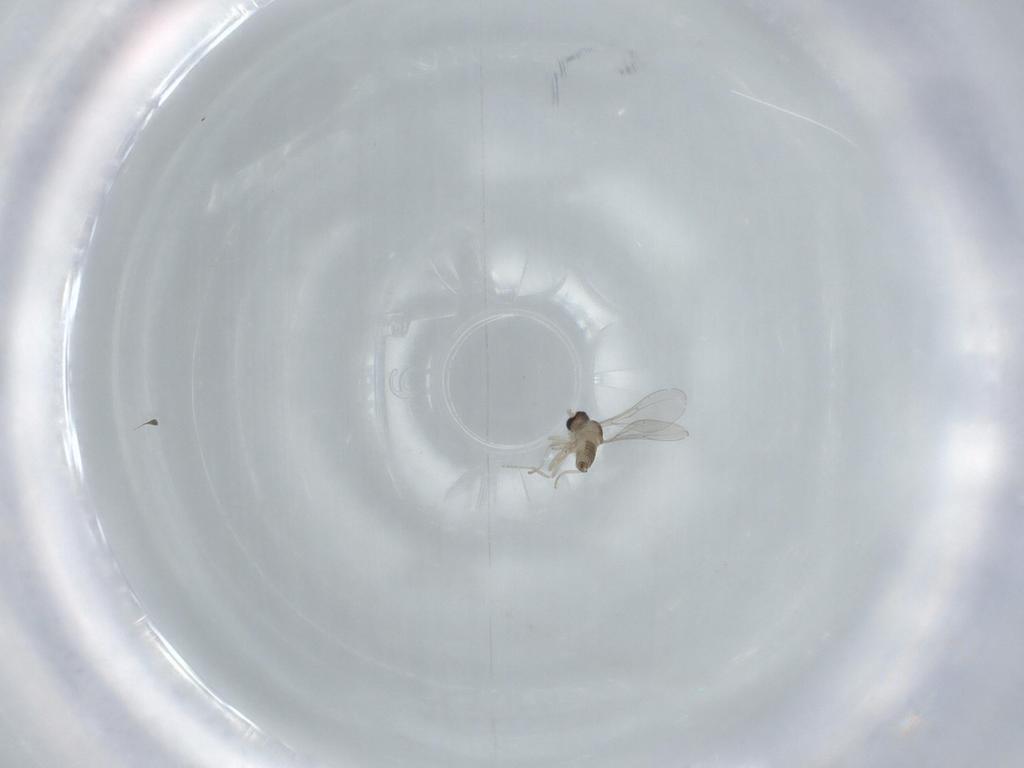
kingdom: Animalia
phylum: Arthropoda
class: Insecta
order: Diptera
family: Cecidomyiidae
